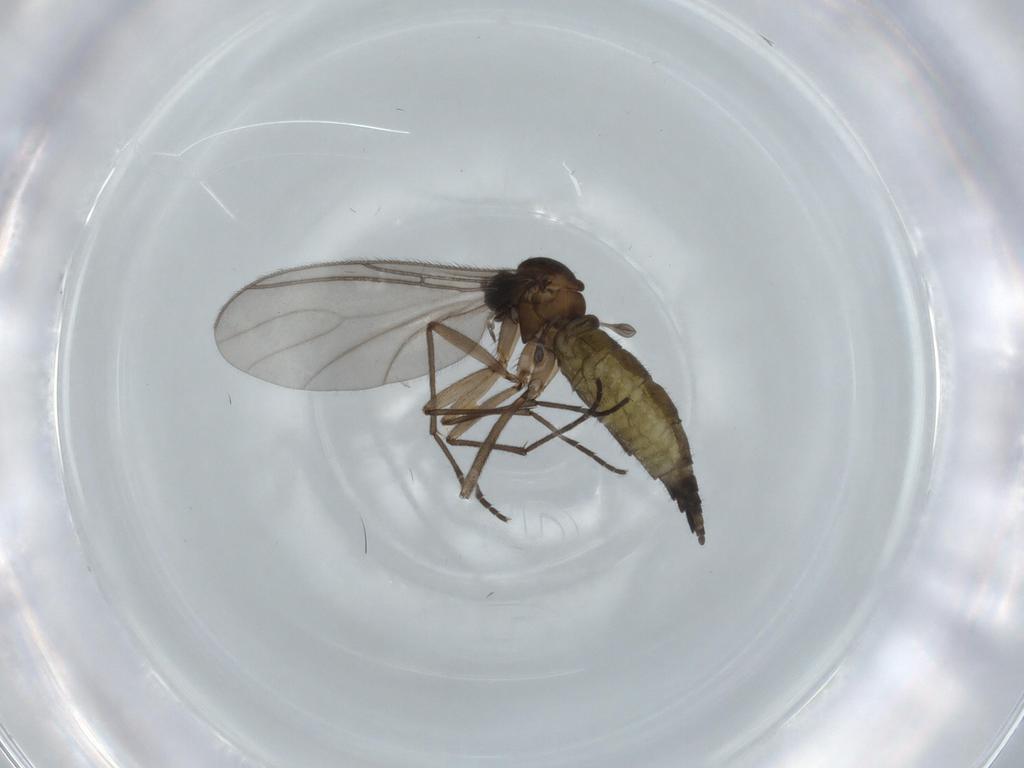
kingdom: Animalia
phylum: Arthropoda
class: Insecta
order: Diptera
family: Sciaridae
